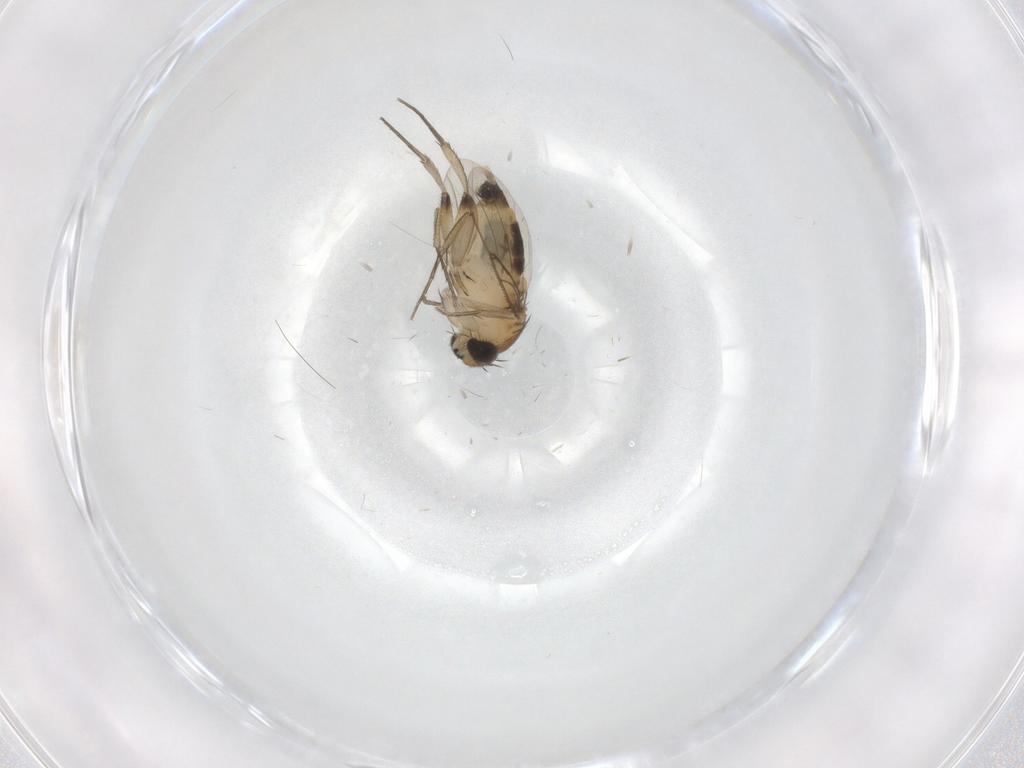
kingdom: Animalia
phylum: Arthropoda
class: Insecta
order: Diptera
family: Phoridae
